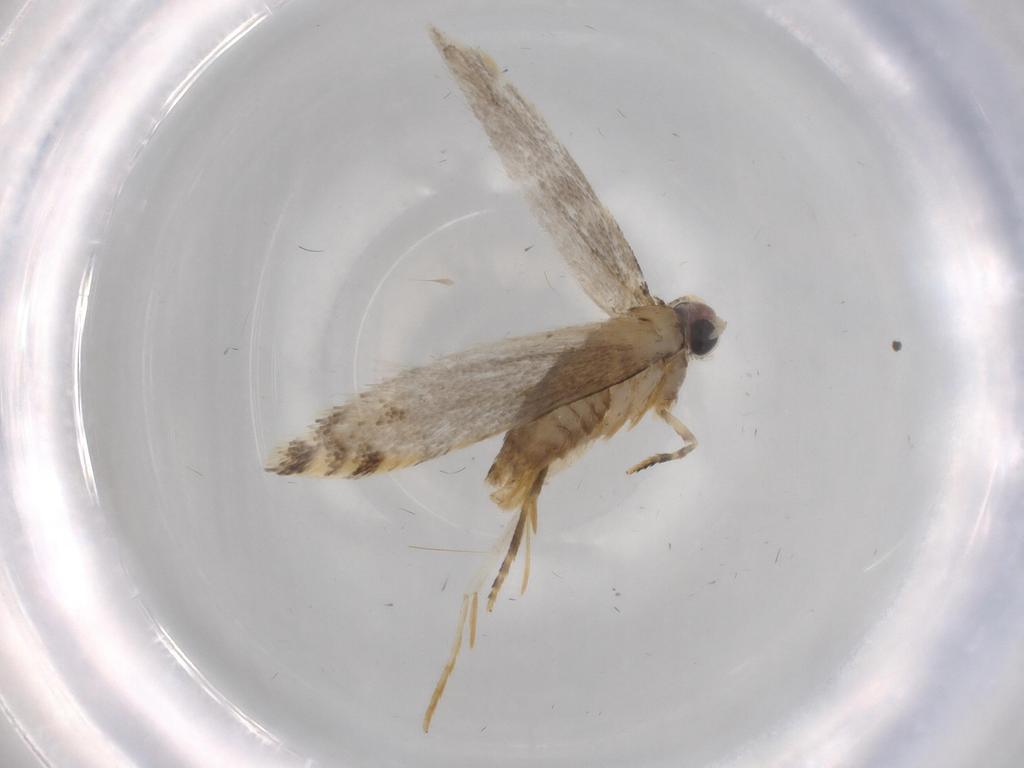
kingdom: Animalia
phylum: Arthropoda
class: Insecta
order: Lepidoptera
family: Tineidae
